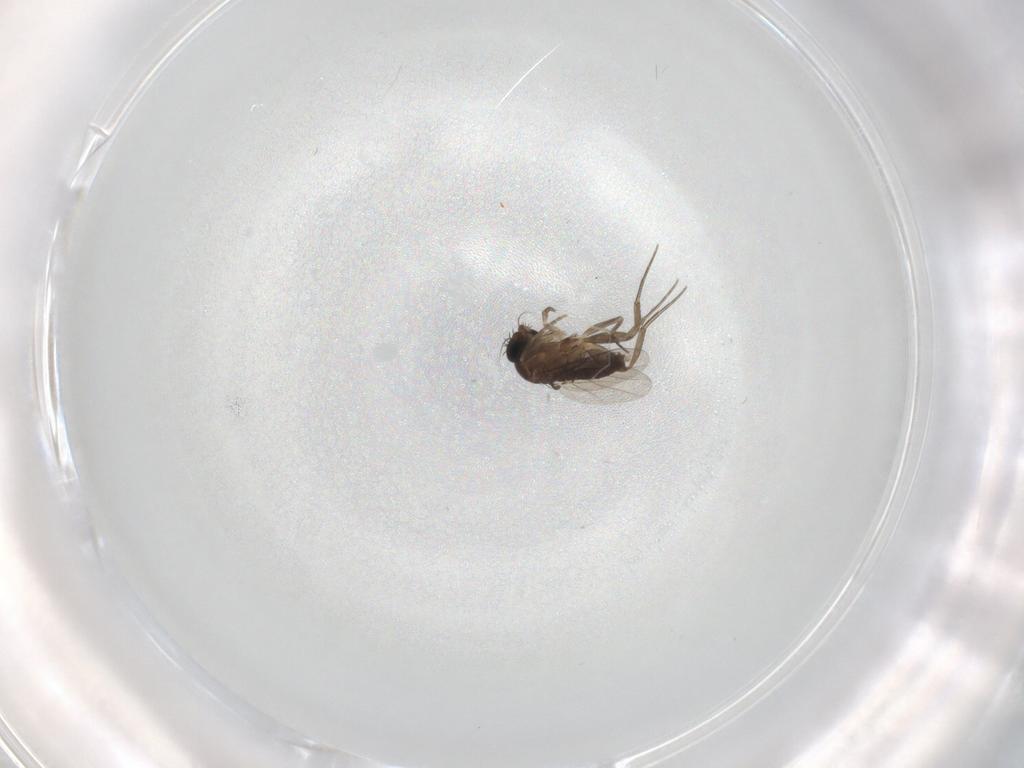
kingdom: Animalia
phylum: Arthropoda
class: Insecta
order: Diptera
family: Phoridae
